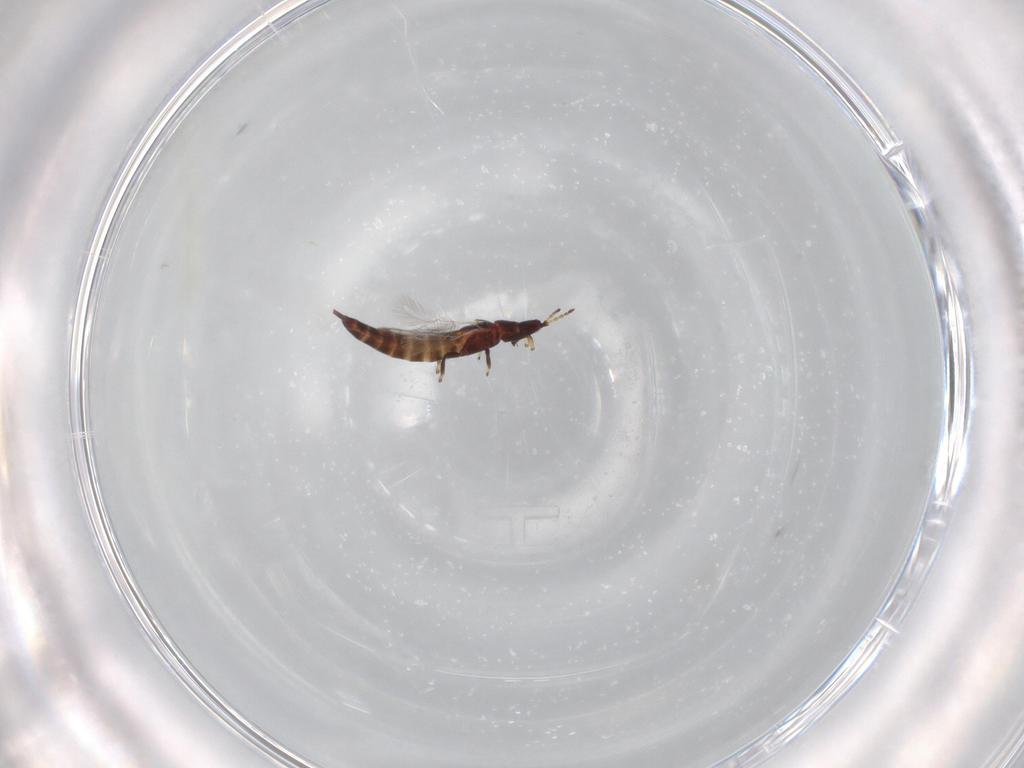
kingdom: Animalia
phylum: Arthropoda
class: Insecta
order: Thysanoptera
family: Phlaeothripidae
